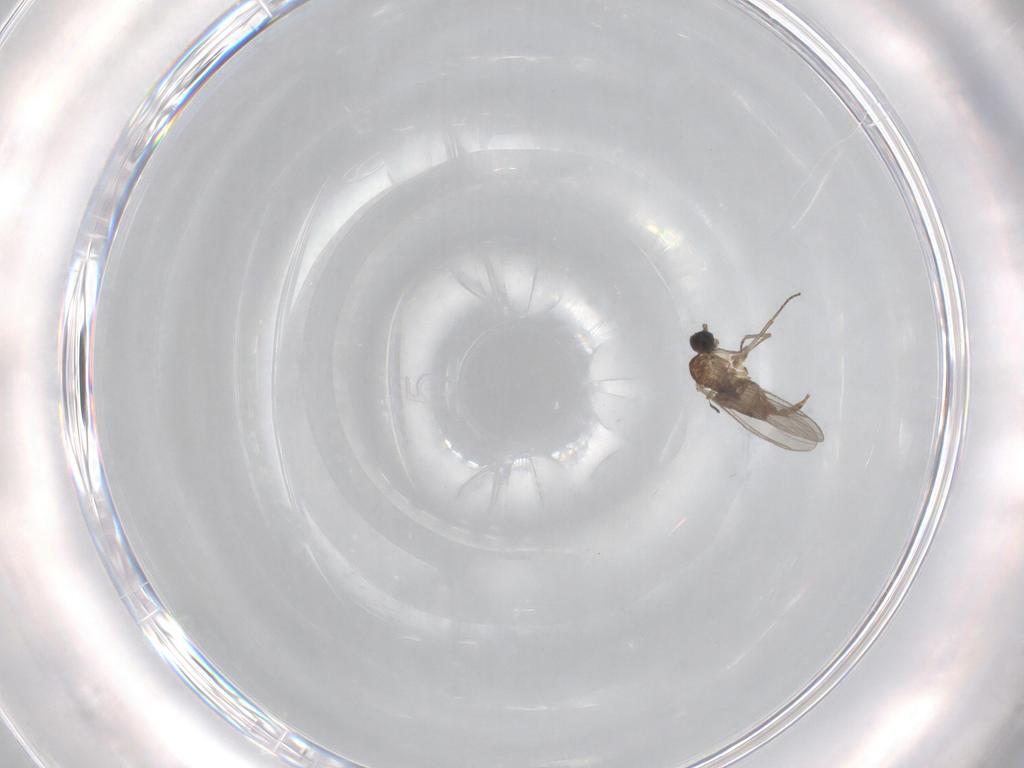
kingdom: Animalia
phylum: Arthropoda
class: Insecta
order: Diptera
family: Sciaridae
